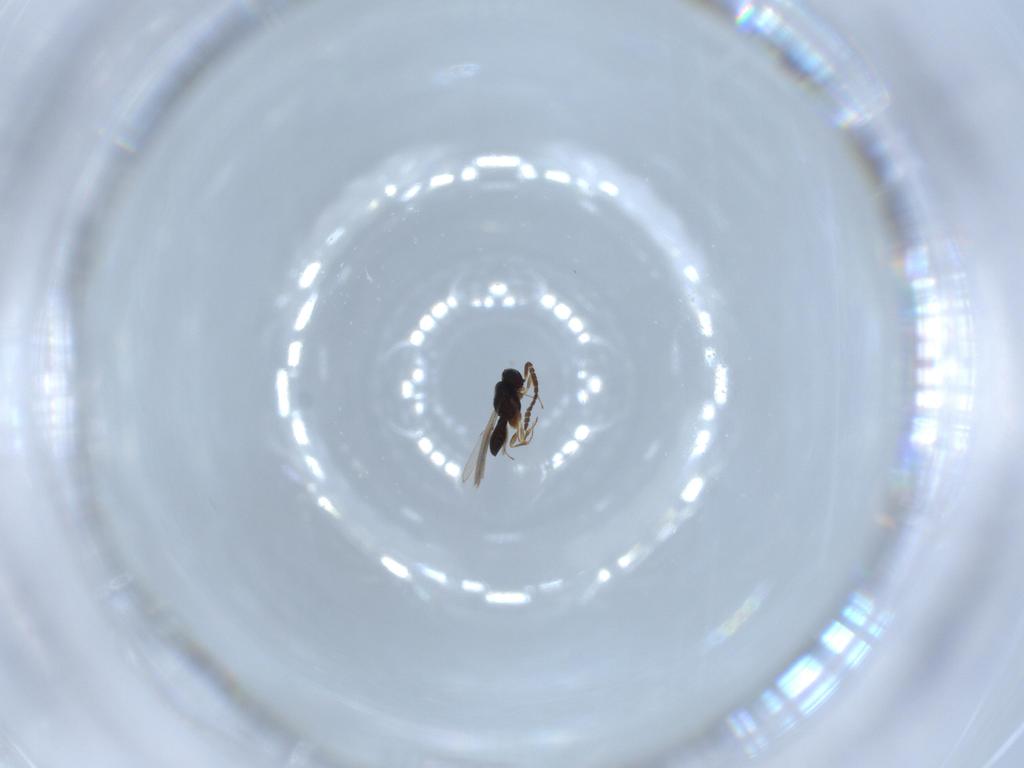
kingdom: Animalia
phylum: Arthropoda
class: Insecta
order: Hymenoptera
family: Scelionidae
